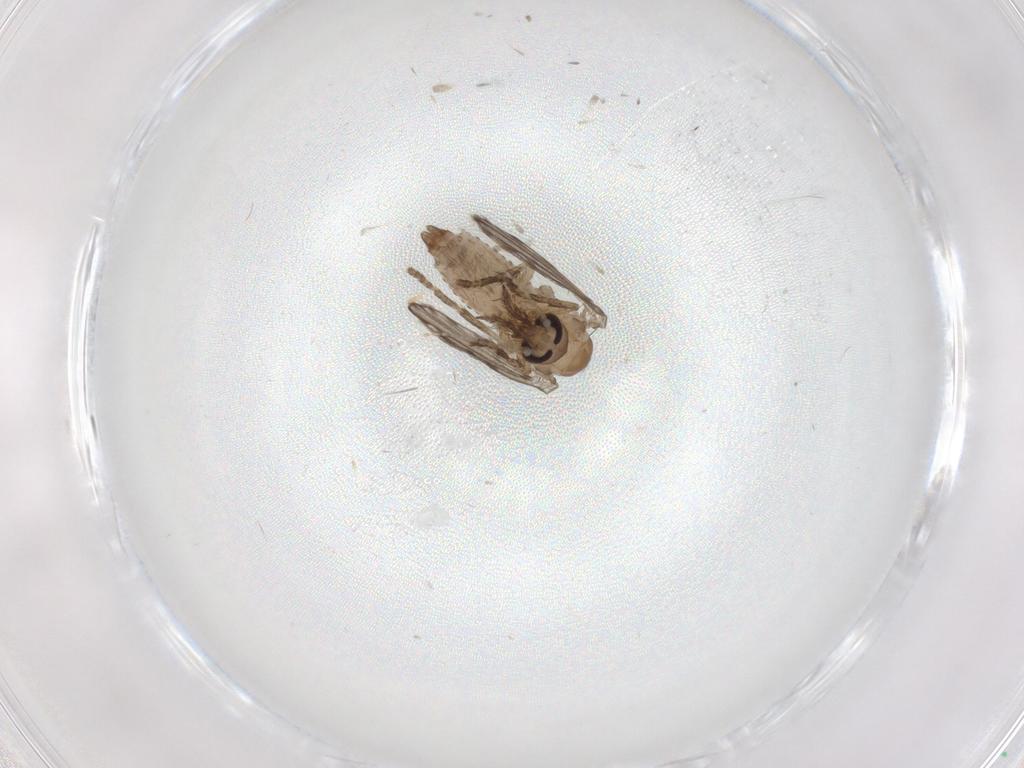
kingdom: Animalia
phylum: Arthropoda
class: Insecta
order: Diptera
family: Psychodidae
